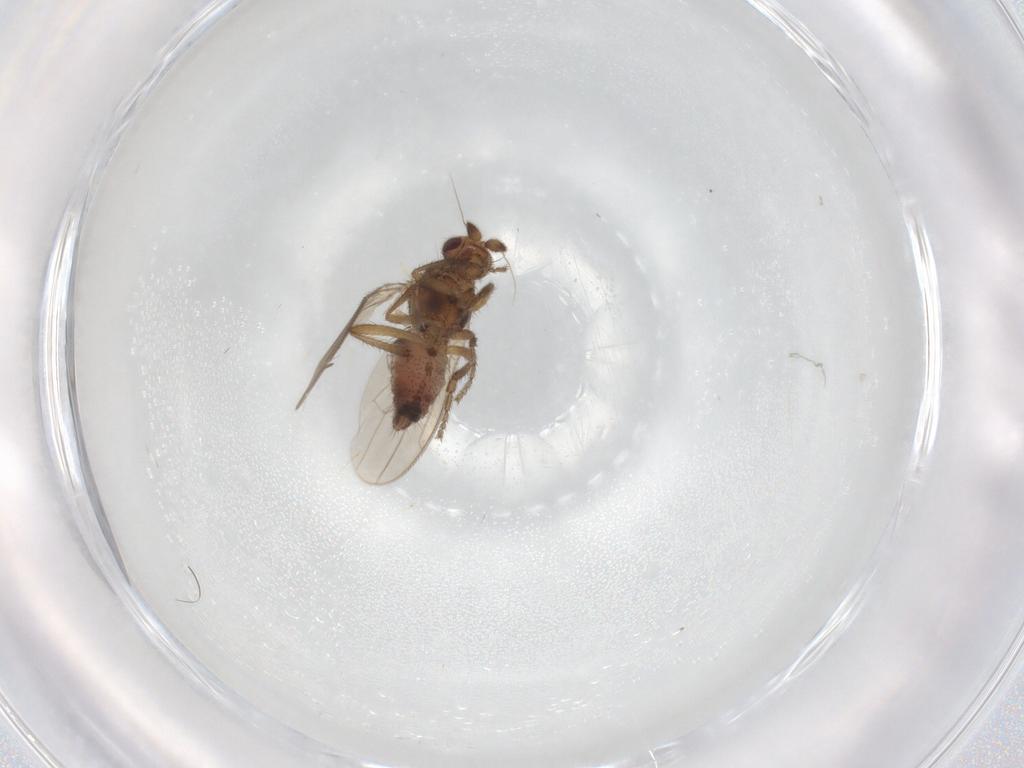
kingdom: Animalia
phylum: Arthropoda
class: Insecta
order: Diptera
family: Sphaeroceridae
